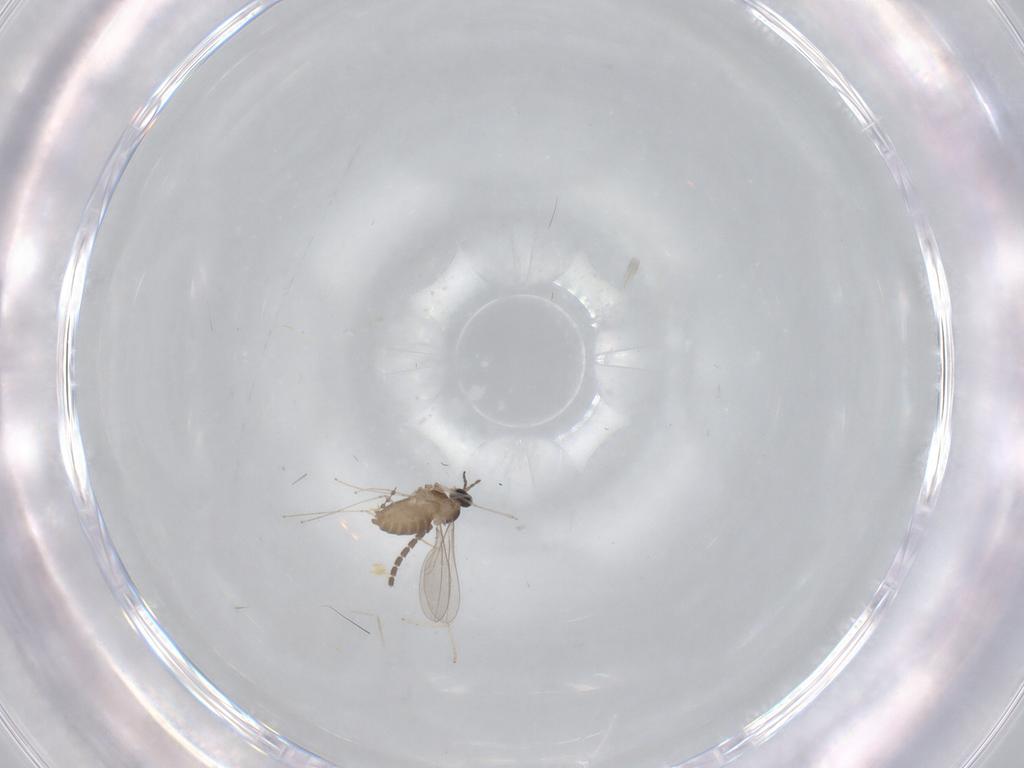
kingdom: Animalia
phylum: Arthropoda
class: Insecta
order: Diptera
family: Cecidomyiidae
